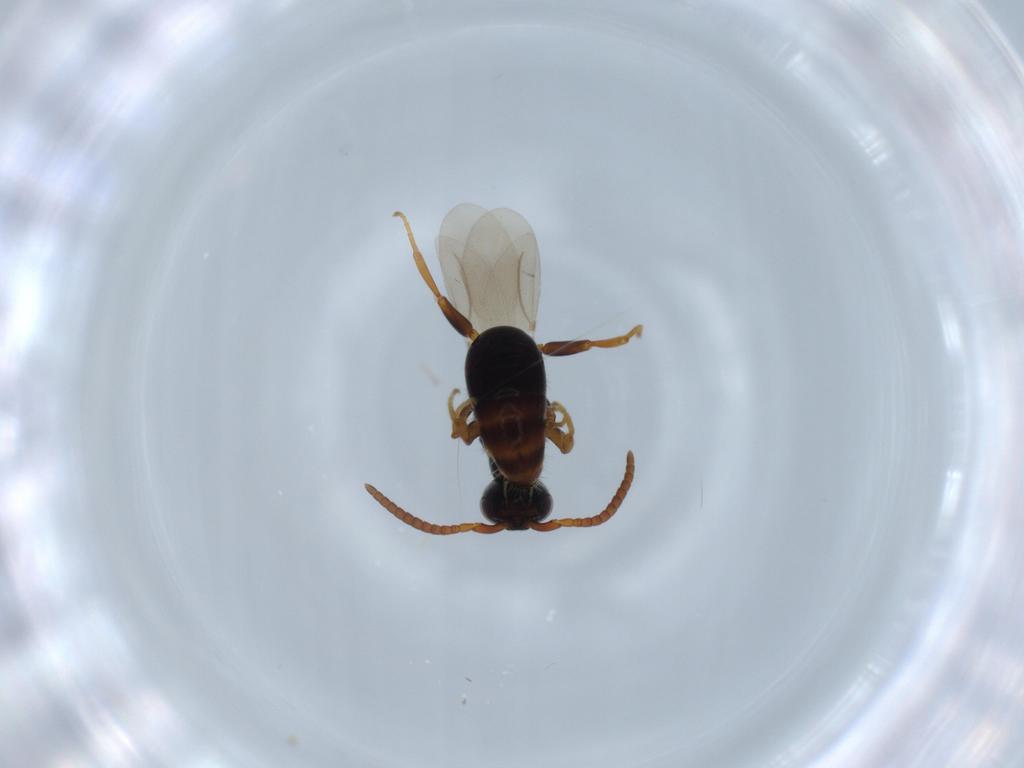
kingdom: Animalia
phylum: Arthropoda
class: Insecta
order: Hymenoptera
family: Bethylidae
